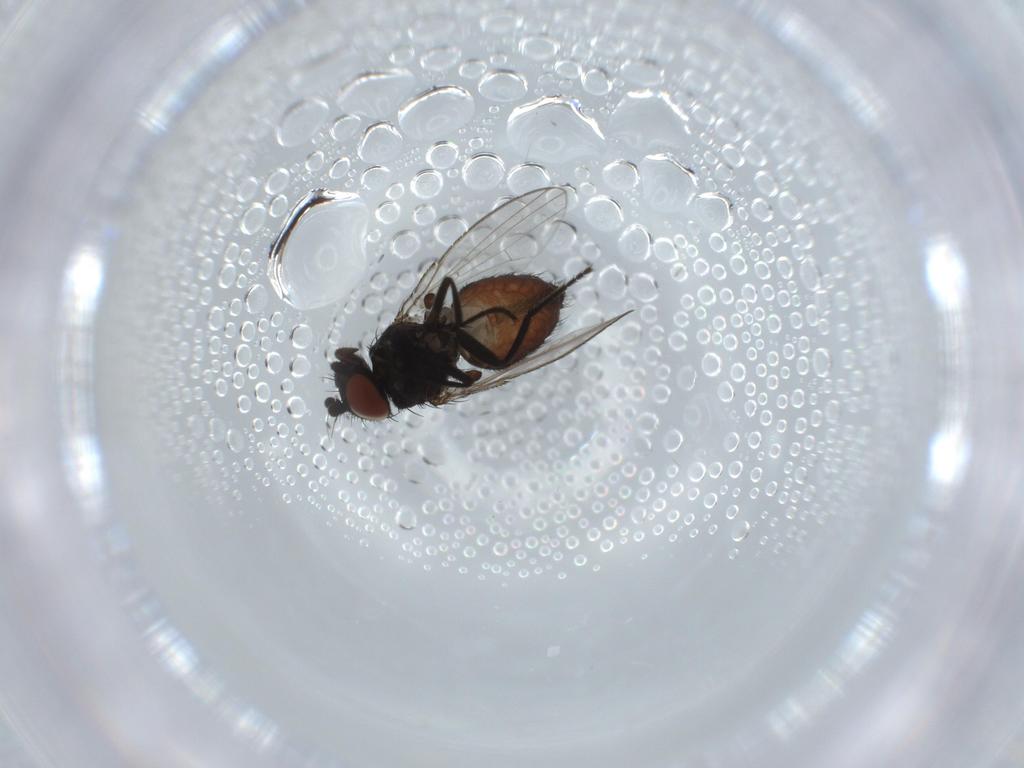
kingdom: Animalia
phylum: Arthropoda
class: Insecta
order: Diptera
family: Milichiidae
